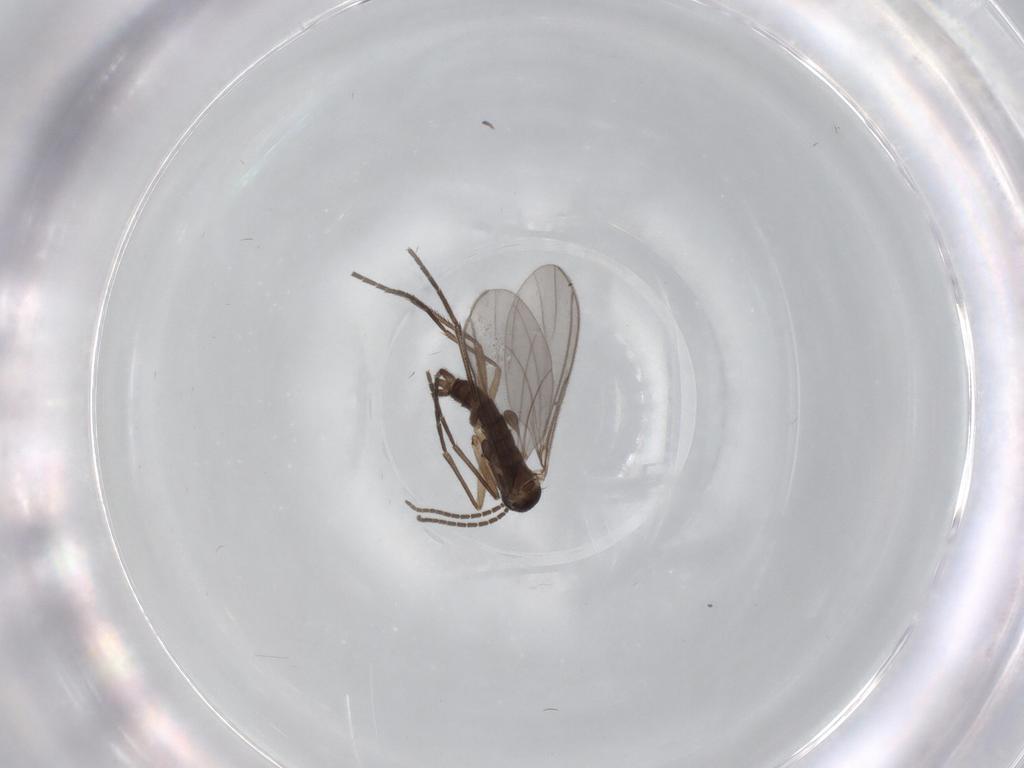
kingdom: Animalia
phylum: Arthropoda
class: Insecta
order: Diptera
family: Sciaridae
